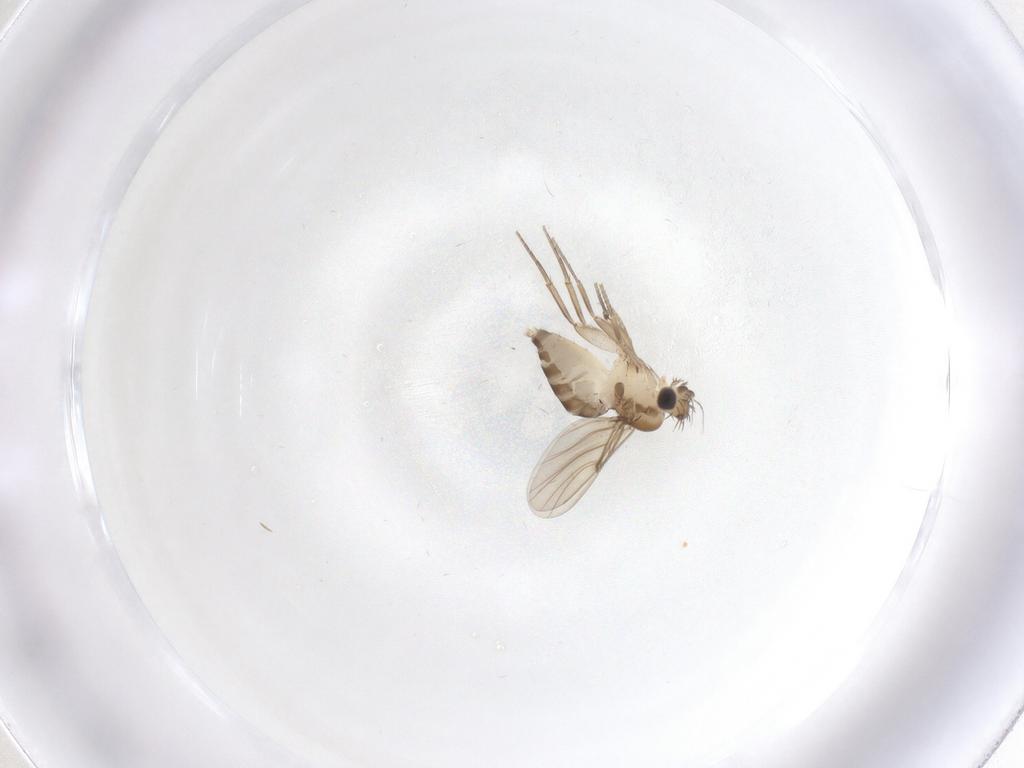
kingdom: Animalia
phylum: Arthropoda
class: Insecta
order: Diptera
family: Phoridae
